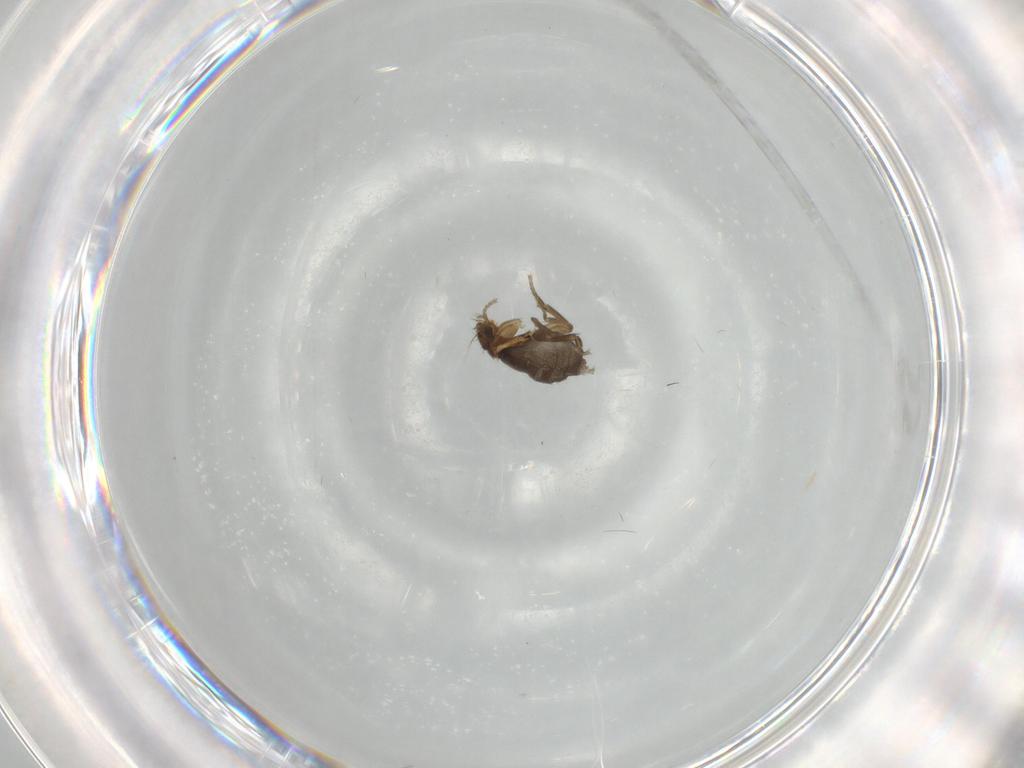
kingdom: Animalia
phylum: Arthropoda
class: Insecta
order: Diptera
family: Chironomidae
